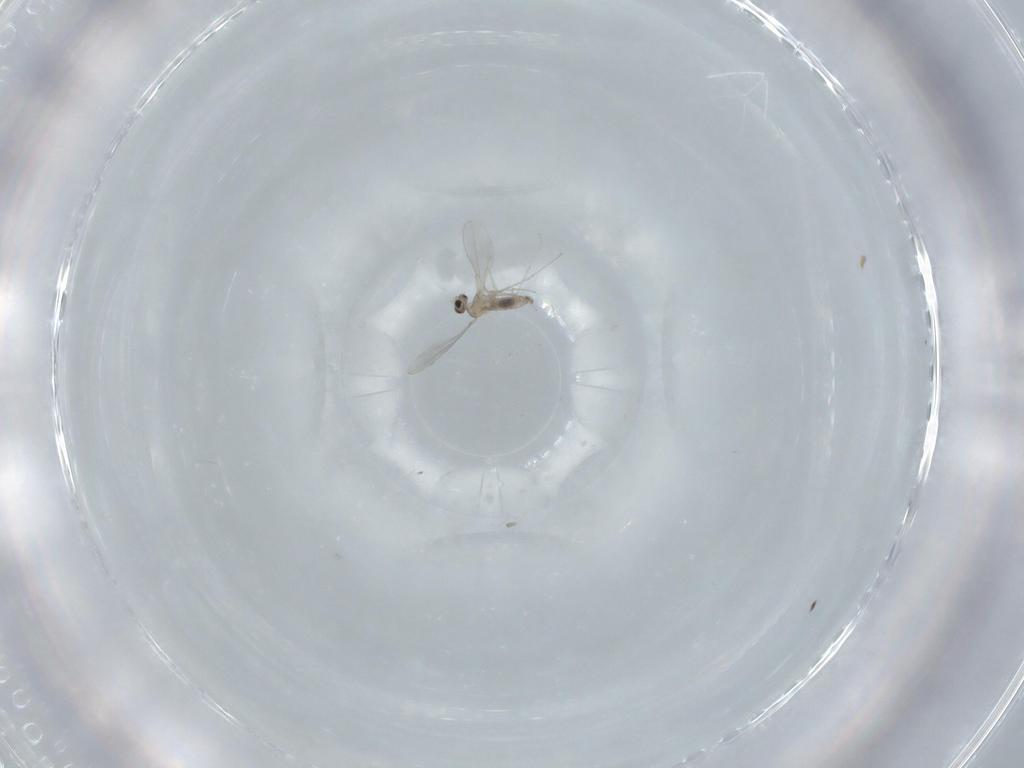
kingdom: Animalia
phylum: Arthropoda
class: Insecta
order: Diptera
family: Cecidomyiidae
